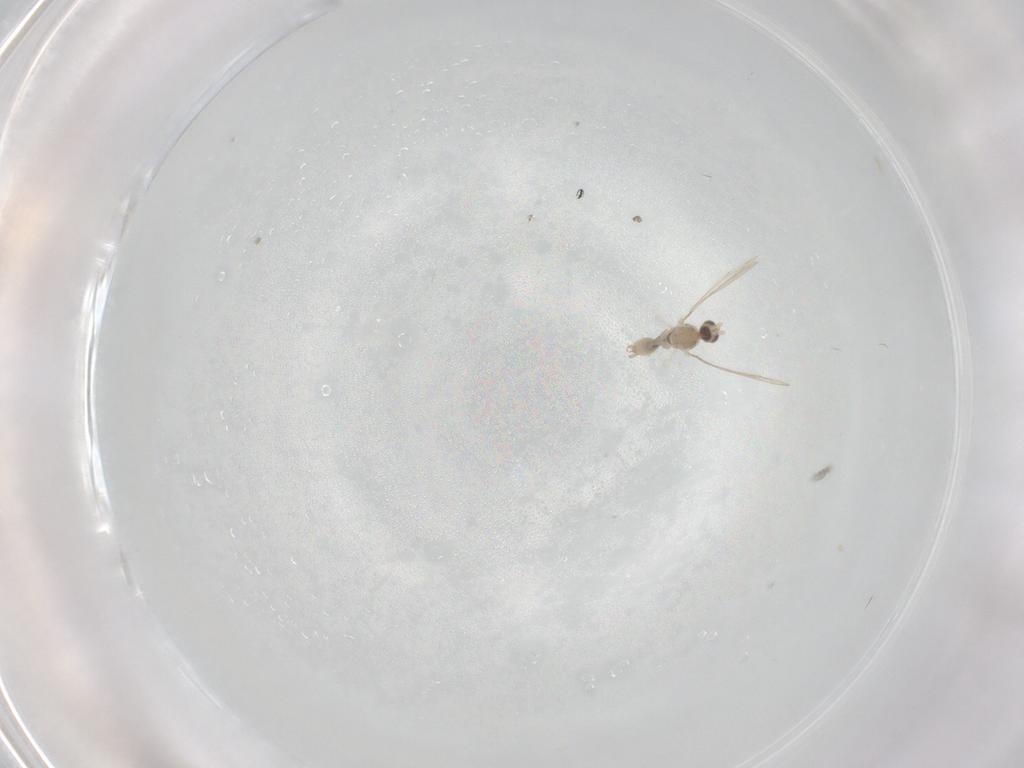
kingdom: Animalia
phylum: Arthropoda
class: Insecta
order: Diptera
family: Cecidomyiidae
